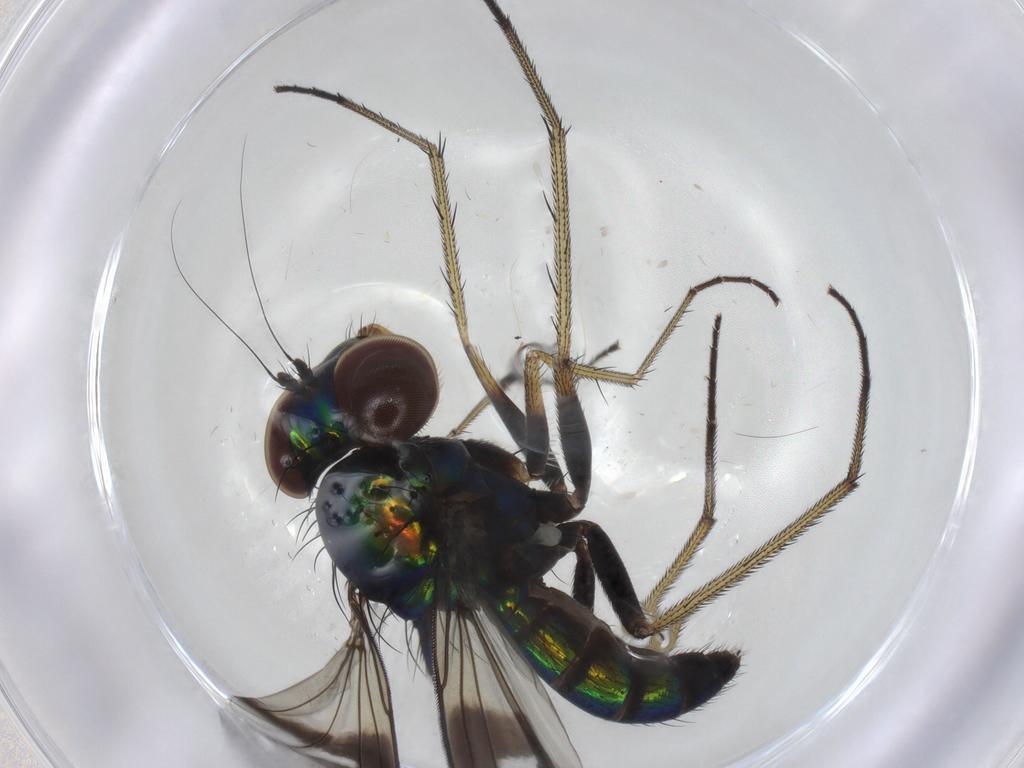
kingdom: Animalia
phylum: Arthropoda
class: Insecta
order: Diptera
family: Dolichopodidae
